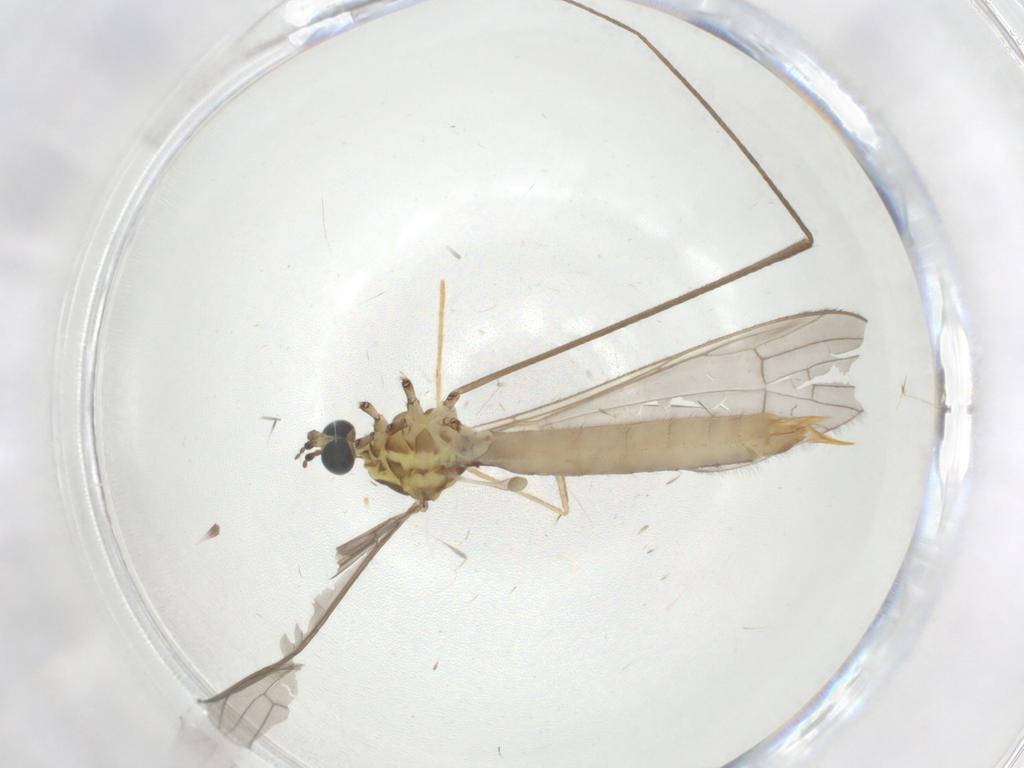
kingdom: Animalia
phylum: Arthropoda
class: Insecta
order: Diptera
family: Limoniidae
